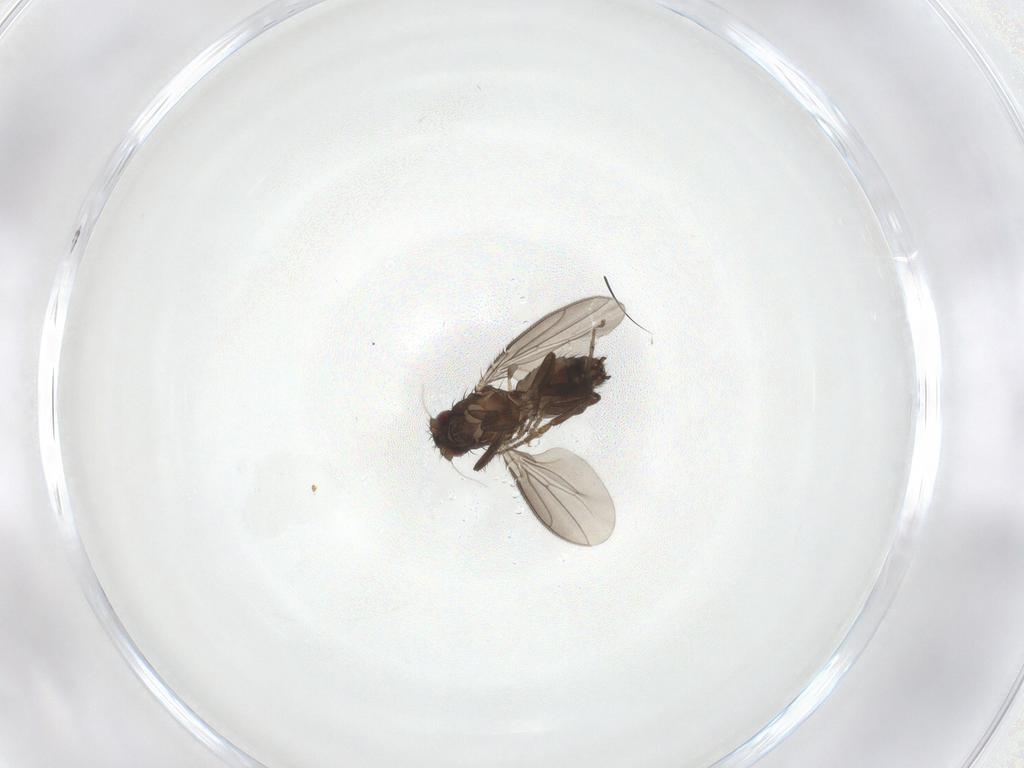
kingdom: Animalia
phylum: Arthropoda
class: Insecta
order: Diptera
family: Sphaeroceridae
